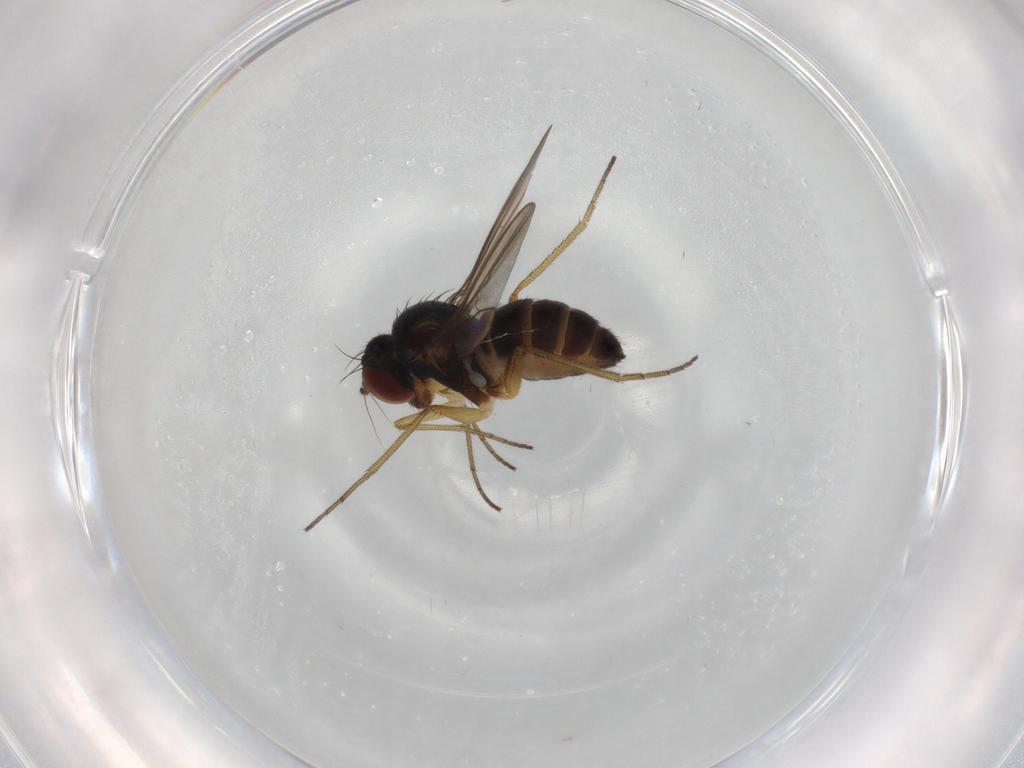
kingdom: Animalia
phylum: Arthropoda
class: Insecta
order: Diptera
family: Dolichopodidae
